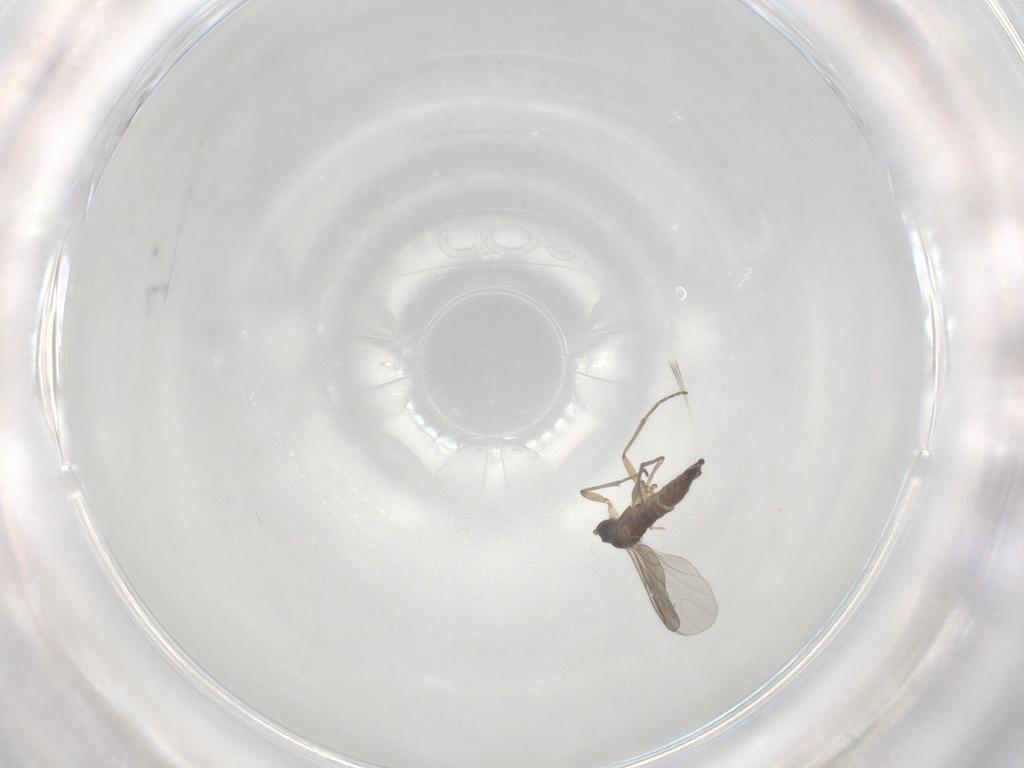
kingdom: Animalia
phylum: Arthropoda
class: Insecta
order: Diptera
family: Sciaridae
